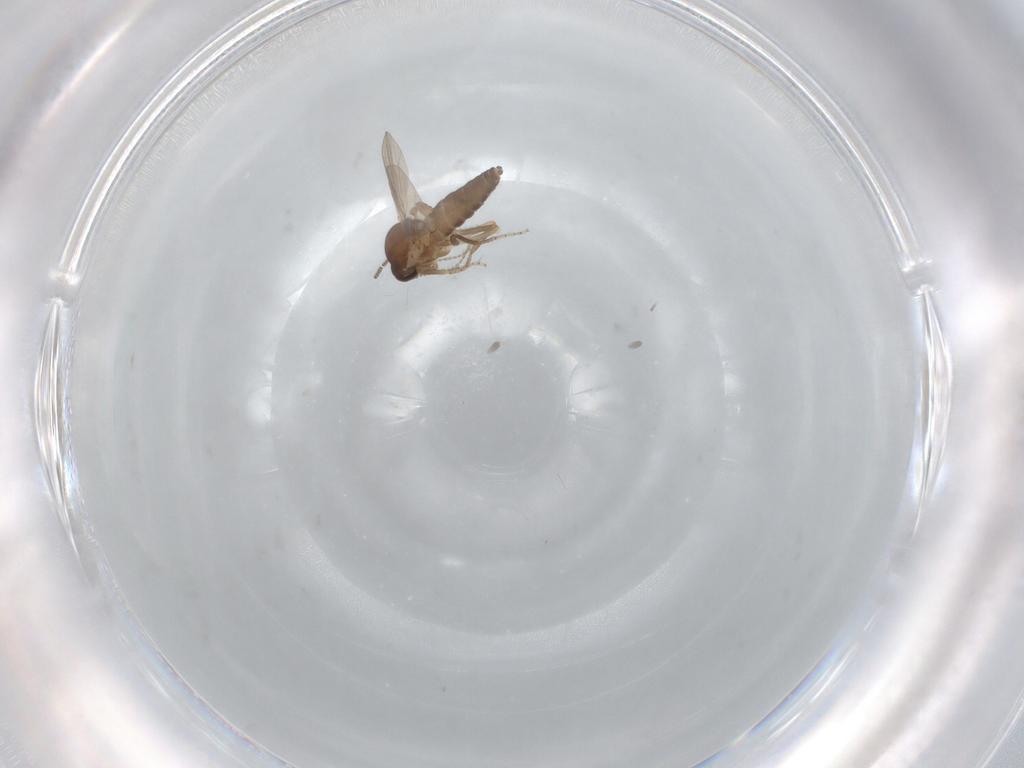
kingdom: Animalia
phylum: Arthropoda
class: Insecta
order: Diptera
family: Ceratopogonidae
